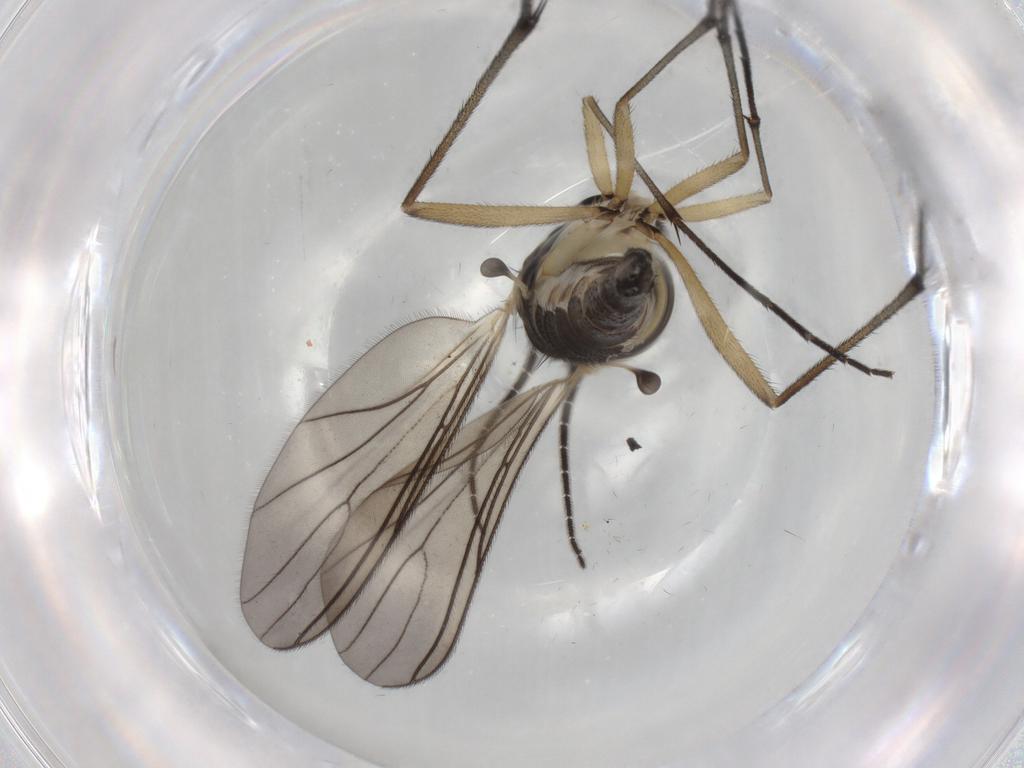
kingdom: Animalia
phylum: Arthropoda
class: Insecta
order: Diptera
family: Sciaridae
